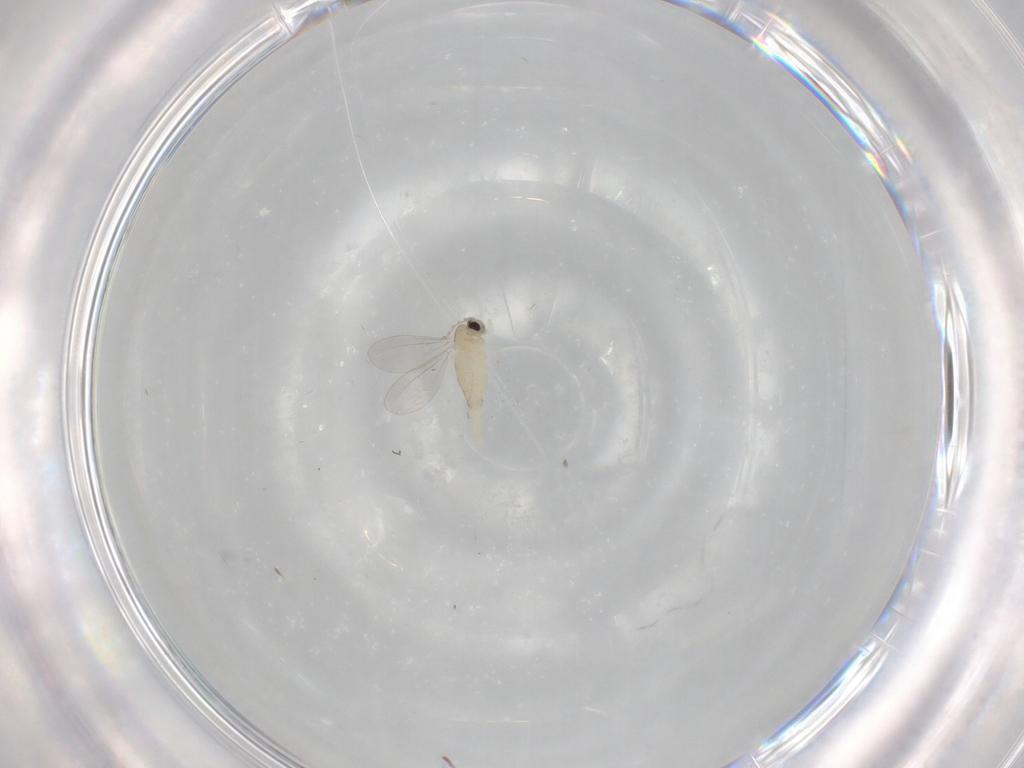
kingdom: Animalia
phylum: Arthropoda
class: Insecta
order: Diptera
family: Cecidomyiidae
